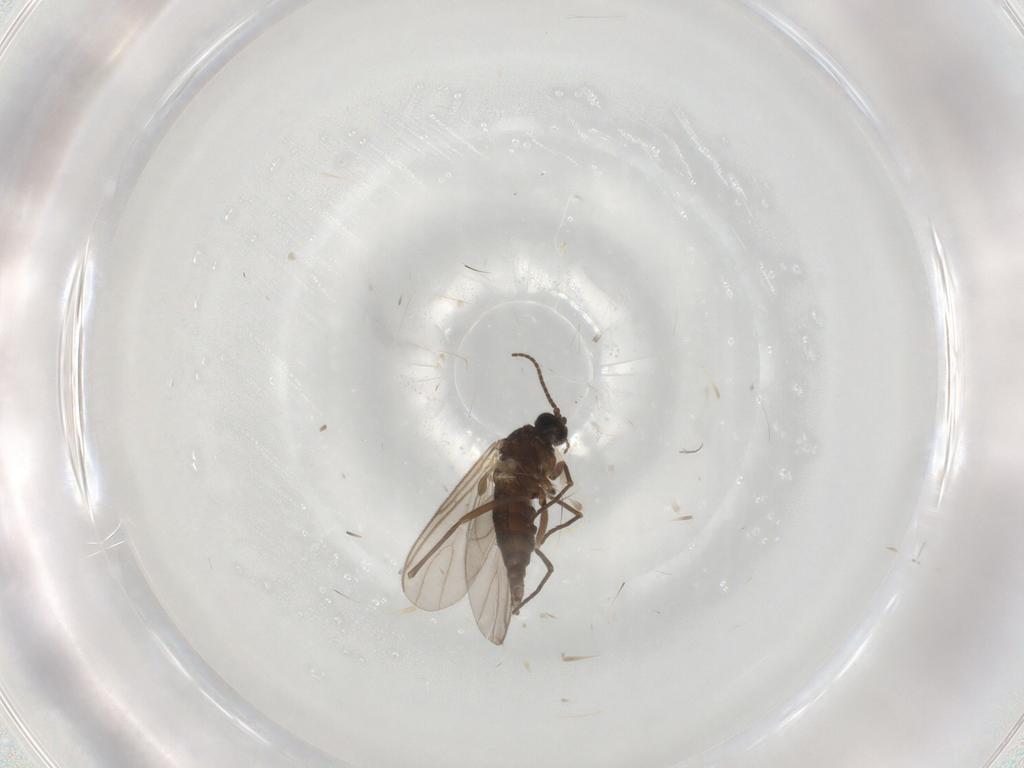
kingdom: Animalia
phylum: Arthropoda
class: Insecta
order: Diptera
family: Sciaridae
